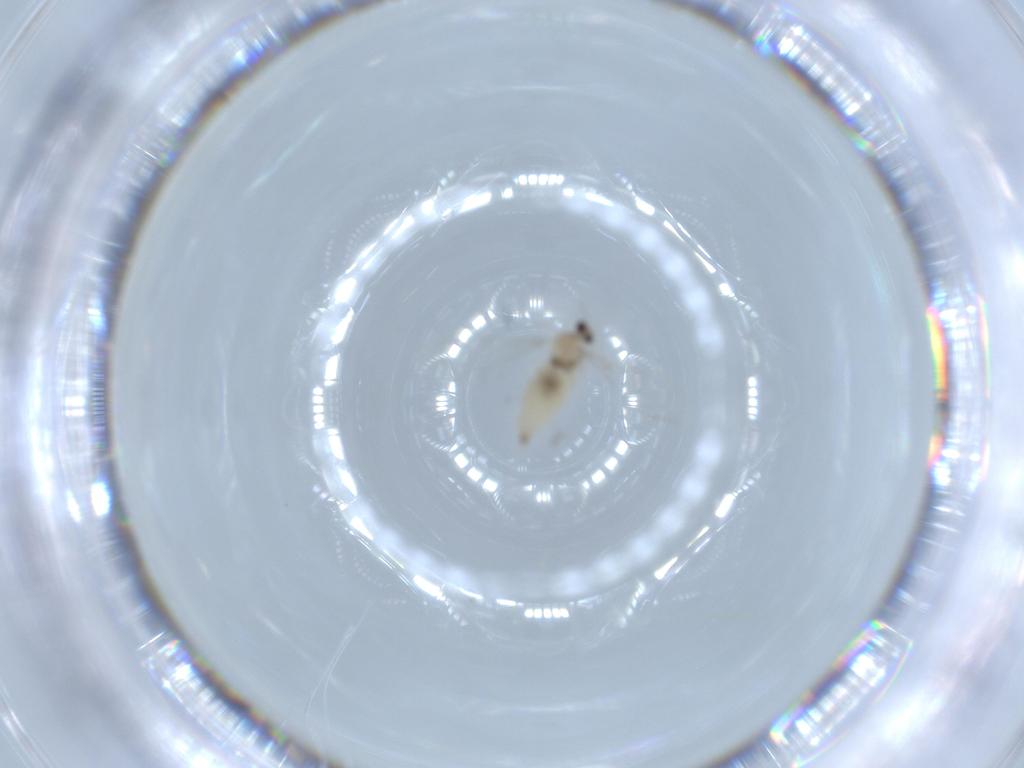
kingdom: Animalia
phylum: Arthropoda
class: Insecta
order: Diptera
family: Cecidomyiidae
